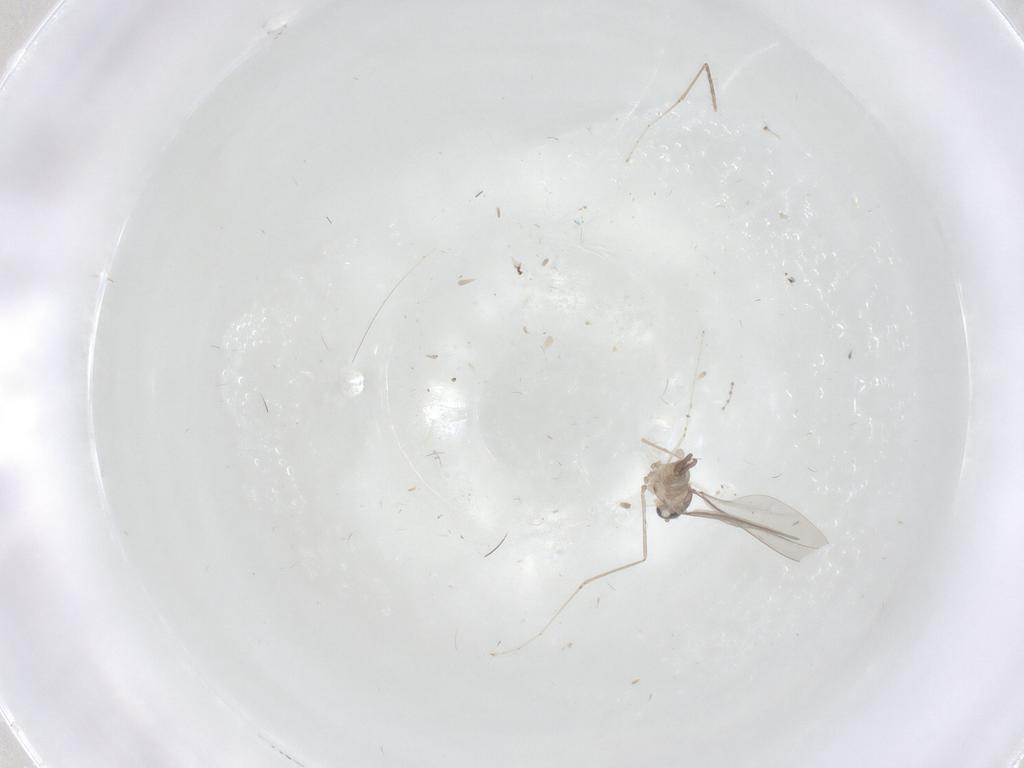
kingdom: Animalia
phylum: Arthropoda
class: Insecta
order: Diptera
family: Cecidomyiidae
